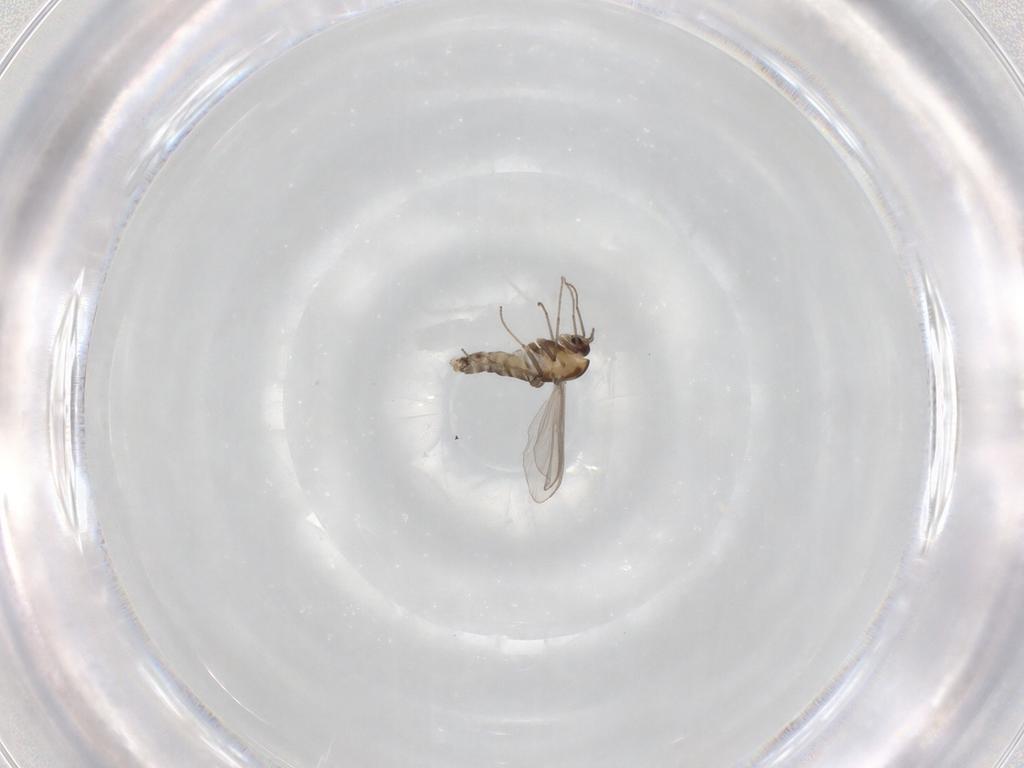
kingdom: Animalia
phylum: Arthropoda
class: Insecta
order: Diptera
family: Chironomidae
